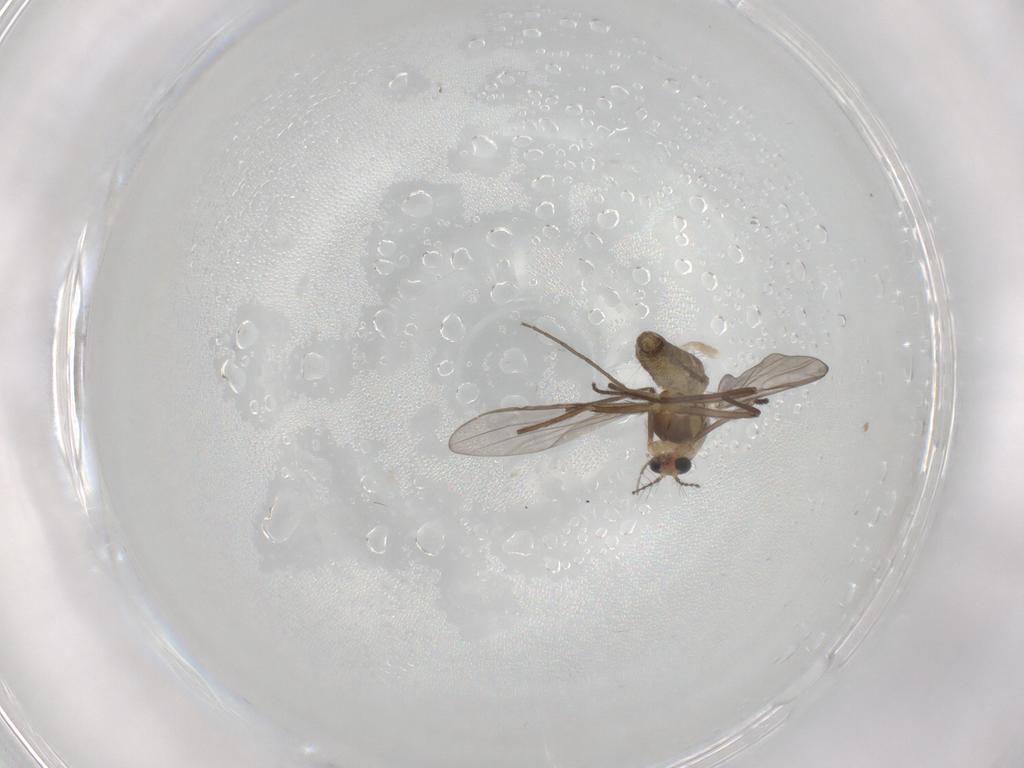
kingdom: Animalia
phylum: Arthropoda
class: Insecta
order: Diptera
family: Chironomidae
